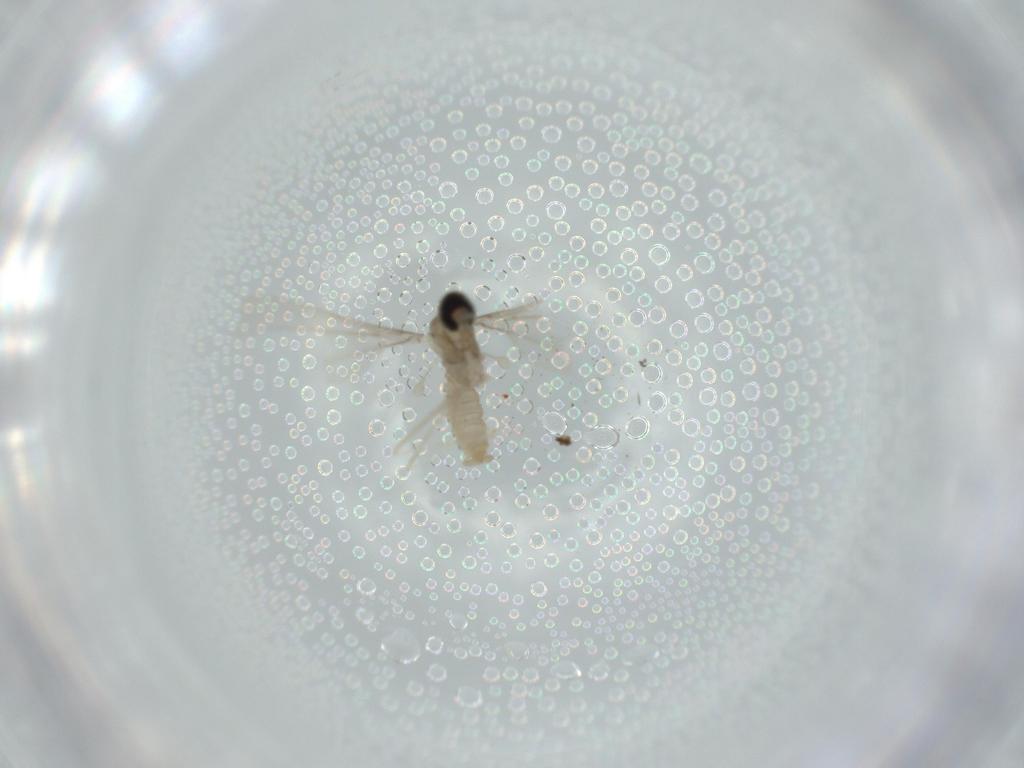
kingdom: Animalia
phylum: Arthropoda
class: Insecta
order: Diptera
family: Cecidomyiidae
